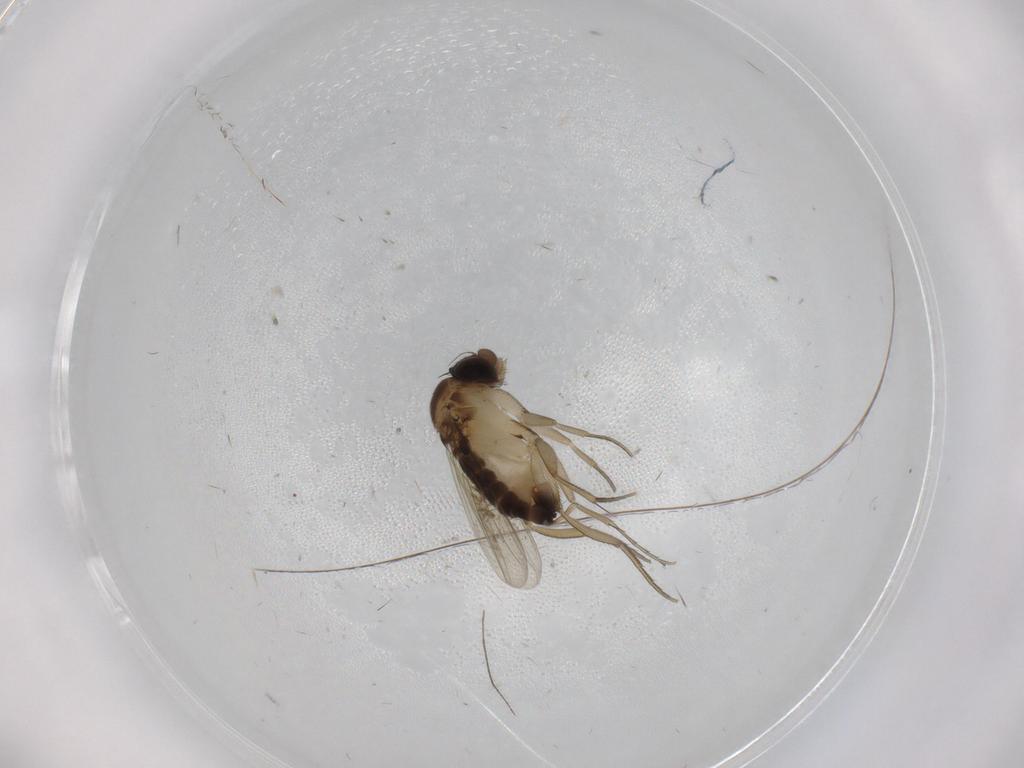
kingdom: Animalia
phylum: Arthropoda
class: Insecta
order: Diptera
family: Phoridae
